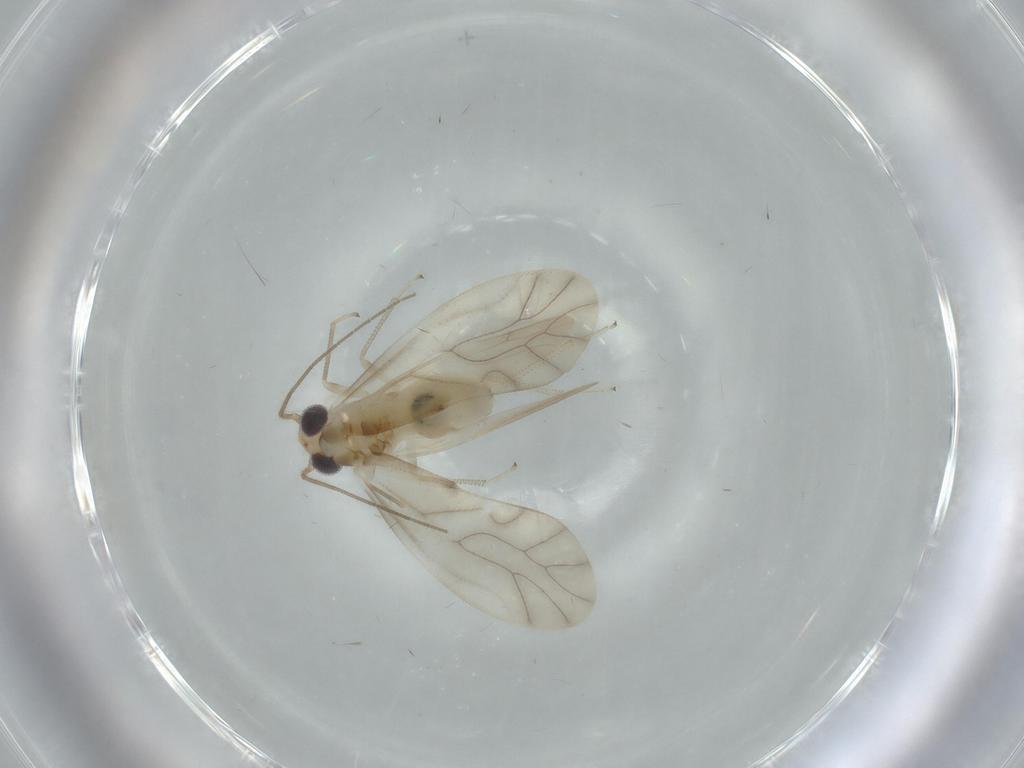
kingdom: Animalia
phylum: Arthropoda
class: Insecta
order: Psocodea
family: Caeciliusidae
